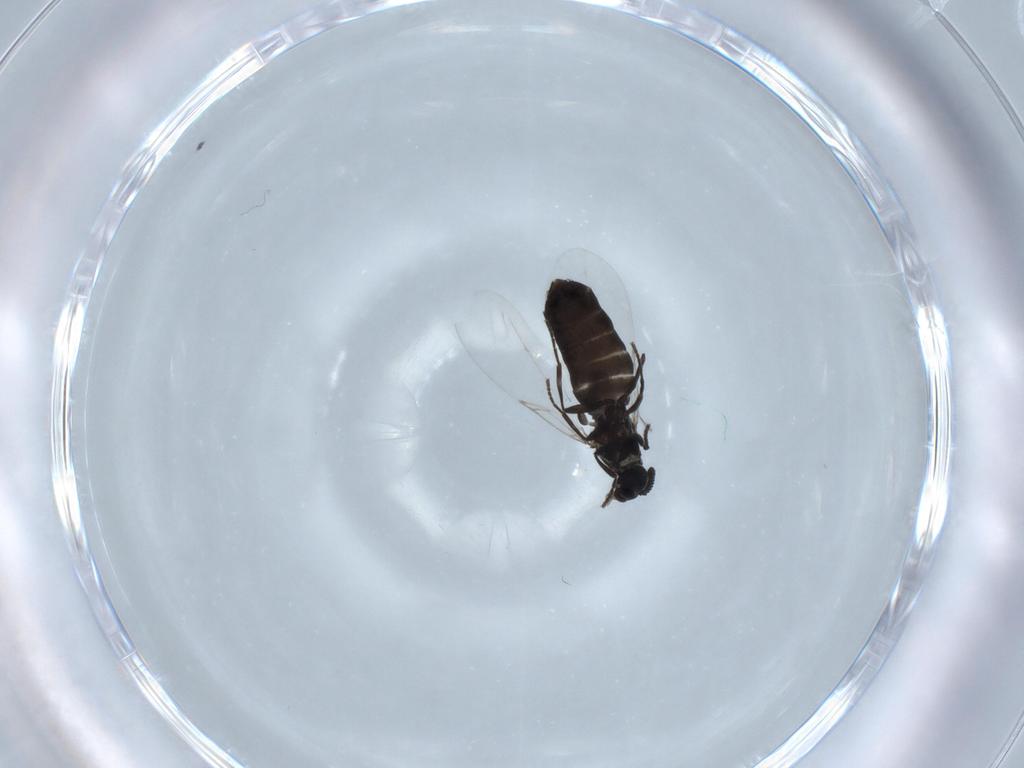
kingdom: Animalia
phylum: Arthropoda
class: Insecta
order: Diptera
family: Scatopsidae
